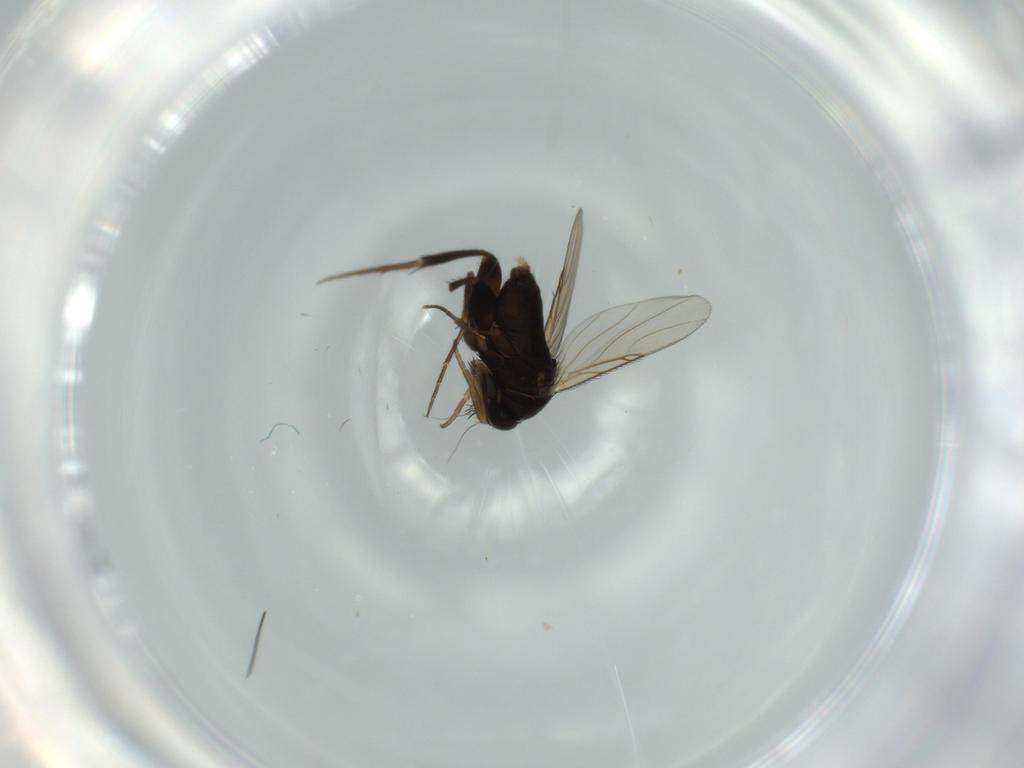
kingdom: Animalia
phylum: Arthropoda
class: Insecta
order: Diptera
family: Phoridae
